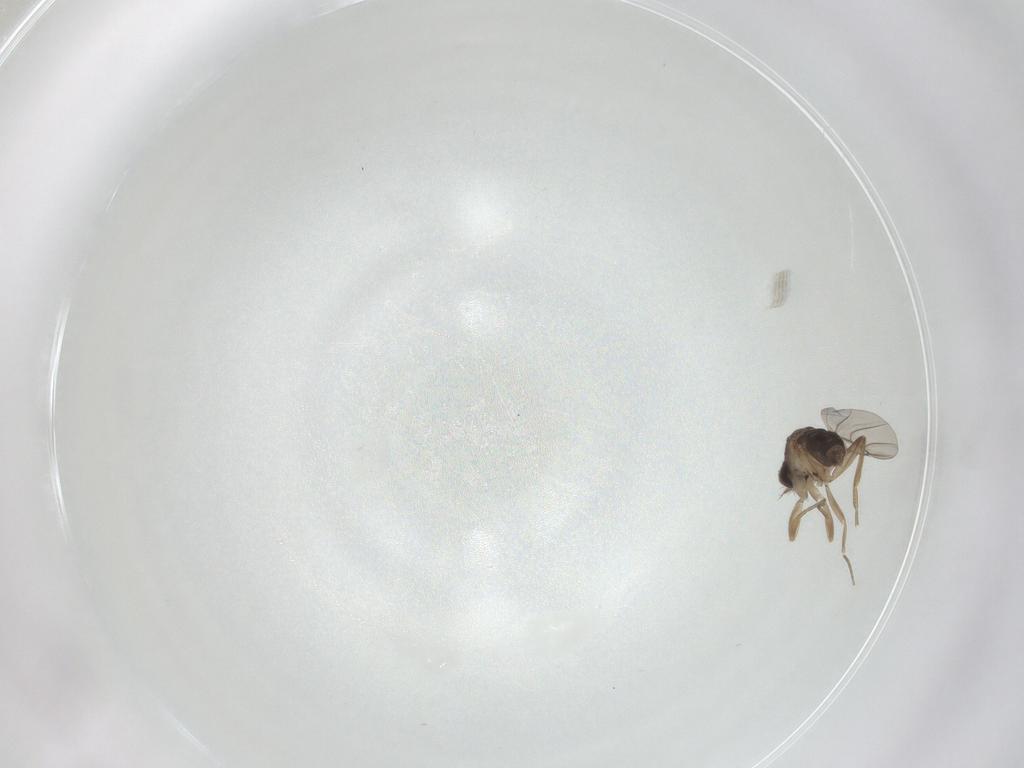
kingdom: Animalia
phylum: Arthropoda
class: Insecta
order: Diptera
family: Phoridae
